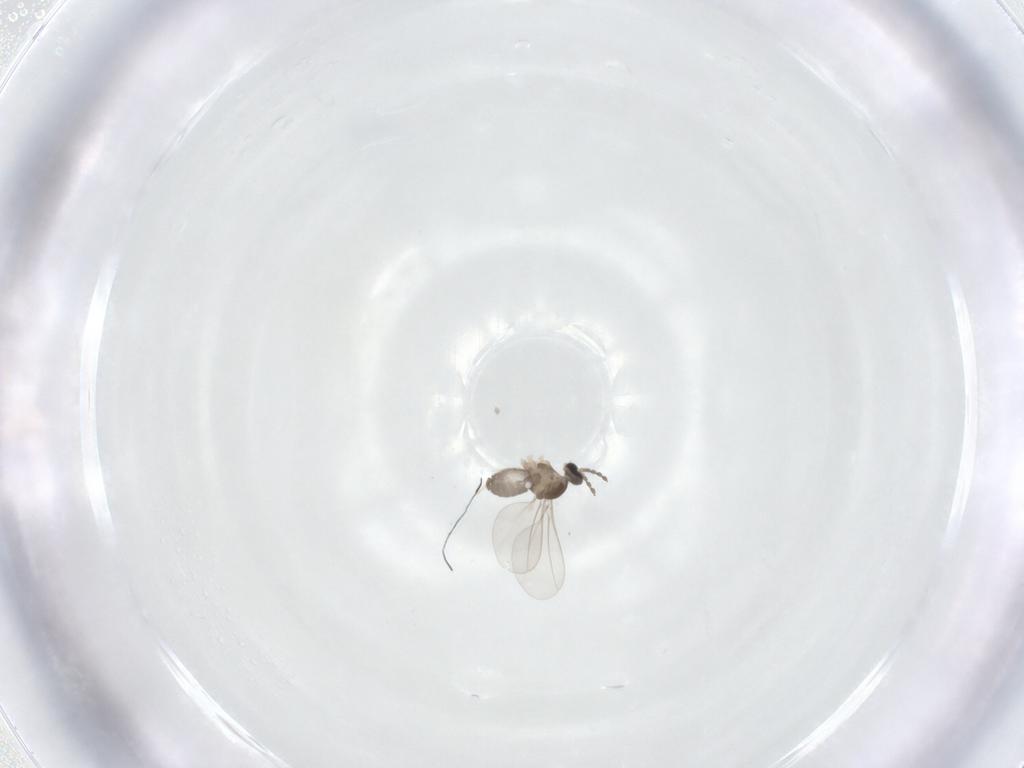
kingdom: Animalia
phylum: Arthropoda
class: Insecta
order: Diptera
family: Cecidomyiidae
